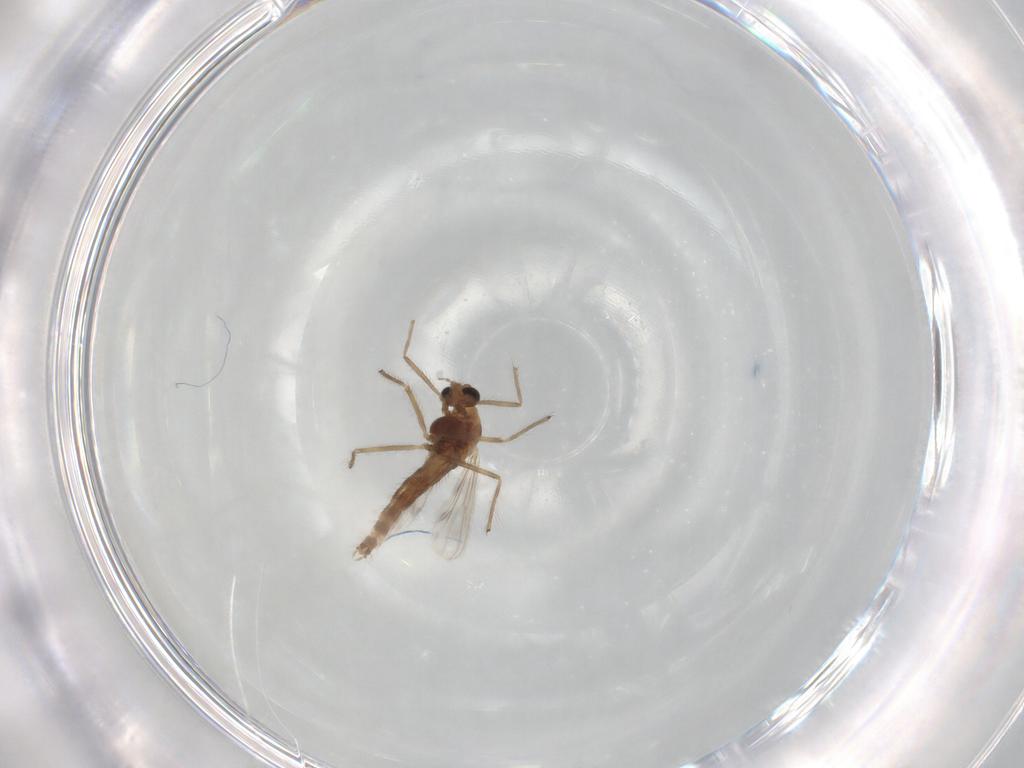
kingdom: Animalia
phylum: Arthropoda
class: Insecta
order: Diptera
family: Chironomidae
